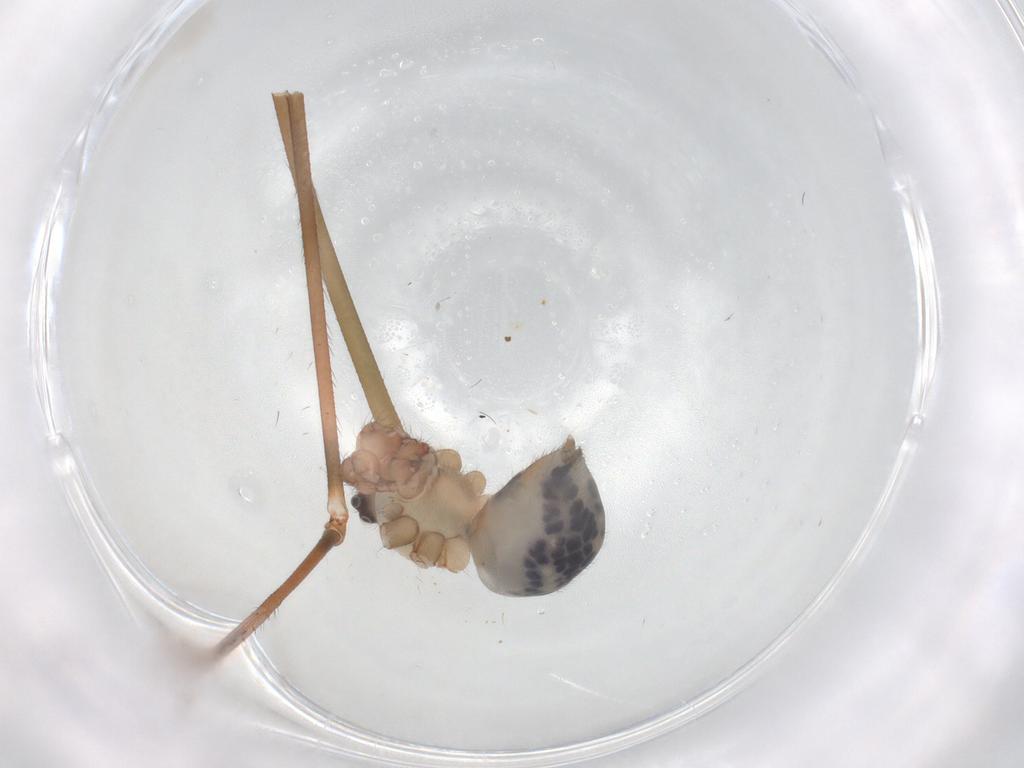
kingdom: Animalia
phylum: Arthropoda
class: Arachnida
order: Araneae
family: Pholcidae
